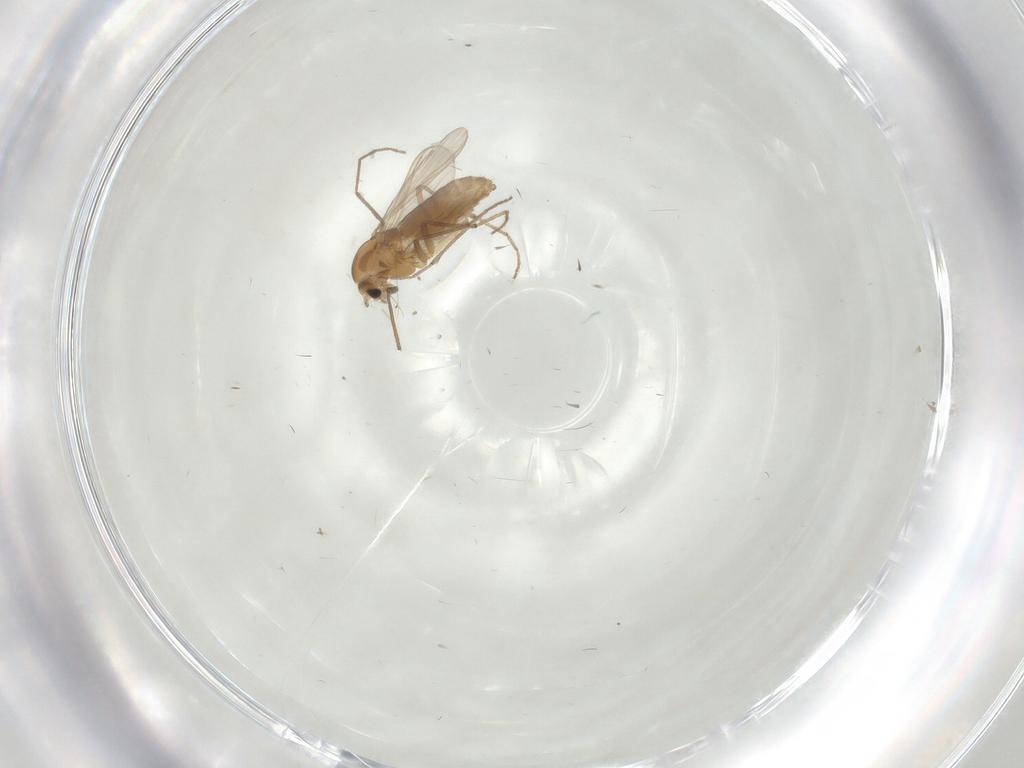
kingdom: Animalia
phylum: Arthropoda
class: Insecta
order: Diptera
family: Chironomidae
